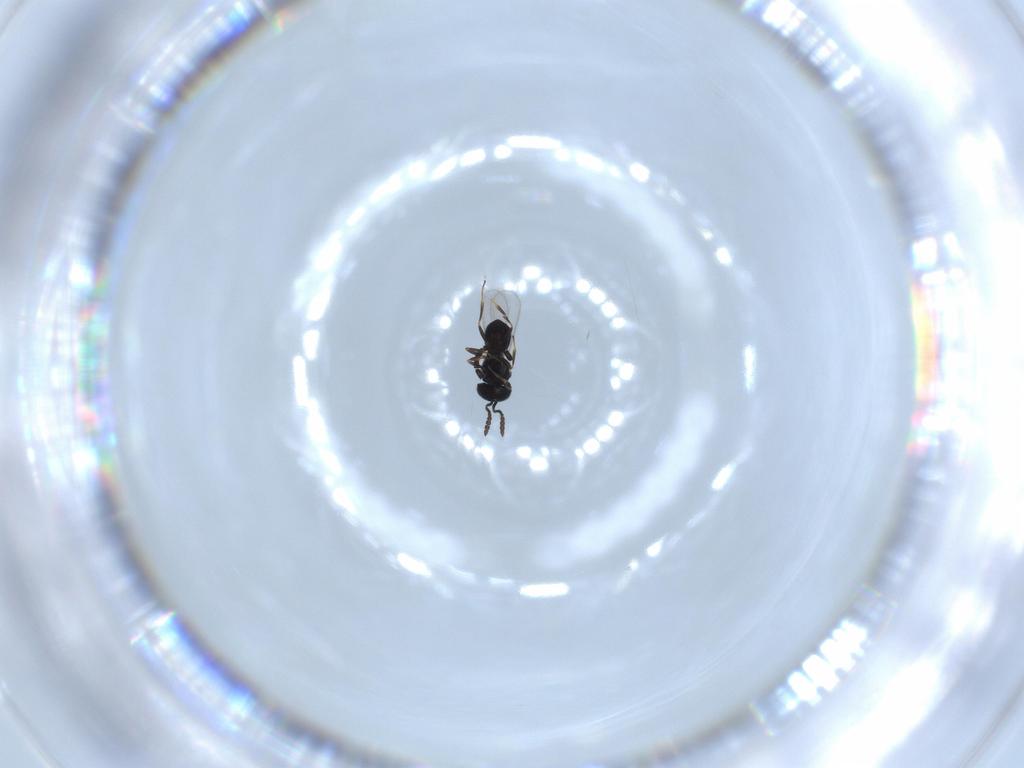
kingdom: Animalia
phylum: Arthropoda
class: Insecta
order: Hymenoptera
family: Scelionidae
